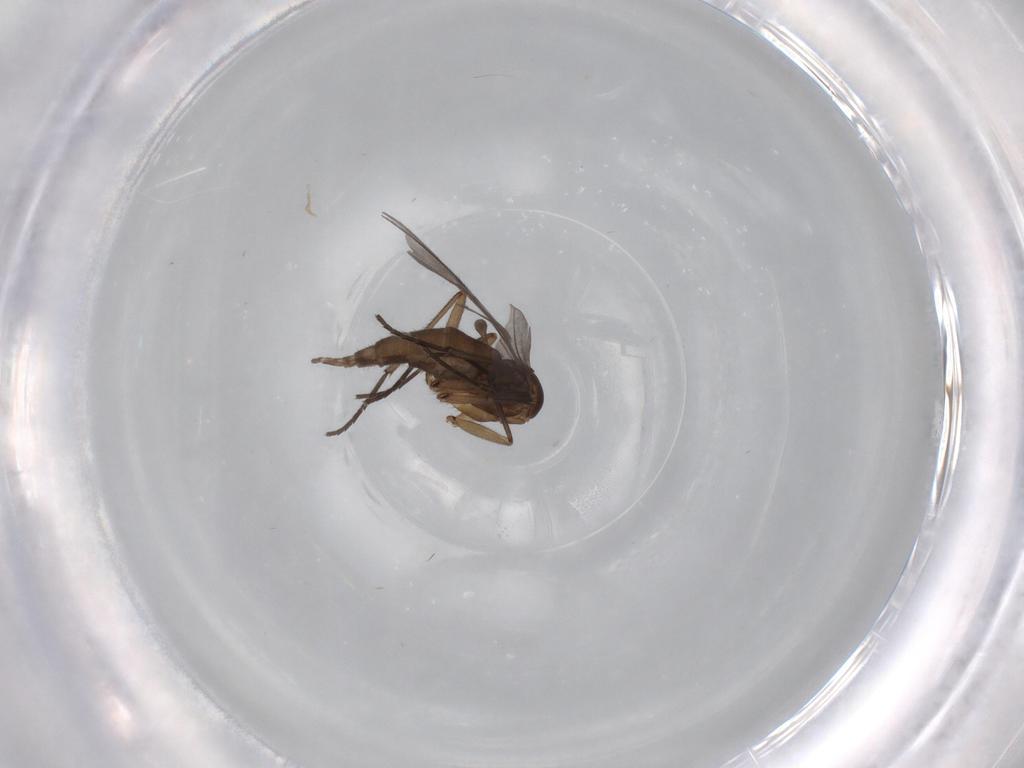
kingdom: Animalia
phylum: Arthropoda
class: Insecta
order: Diptera
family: Sciaridae
